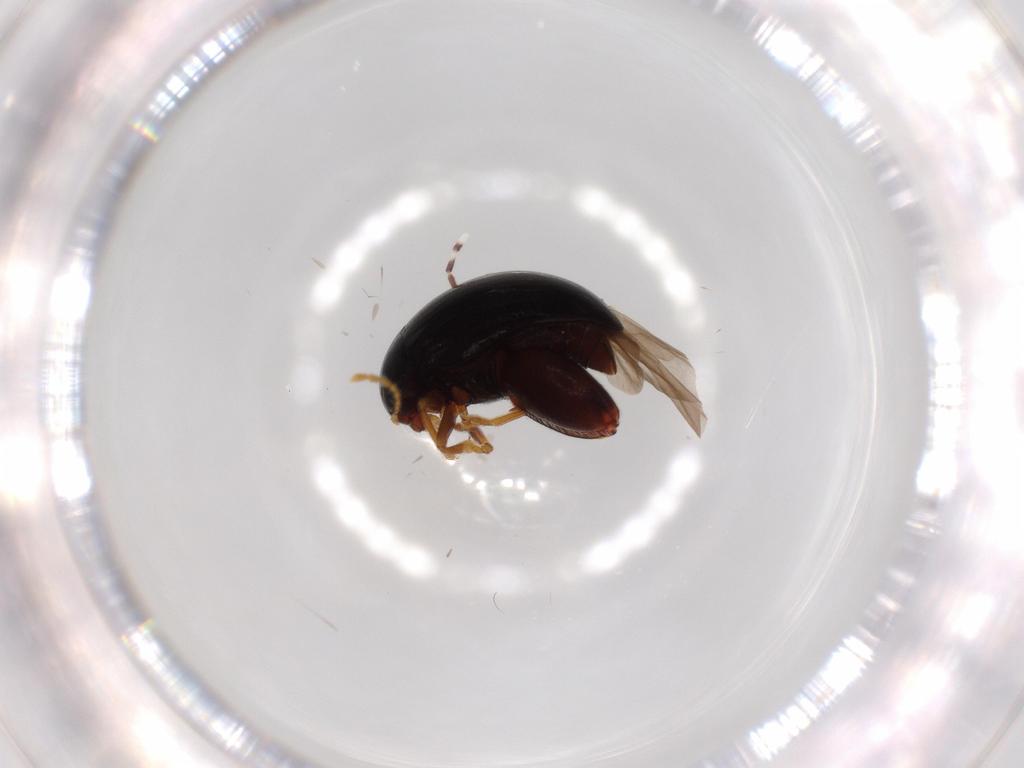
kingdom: Animalia
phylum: Arthropoda
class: Insecta
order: Coleoptera
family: Chrysomelidae
